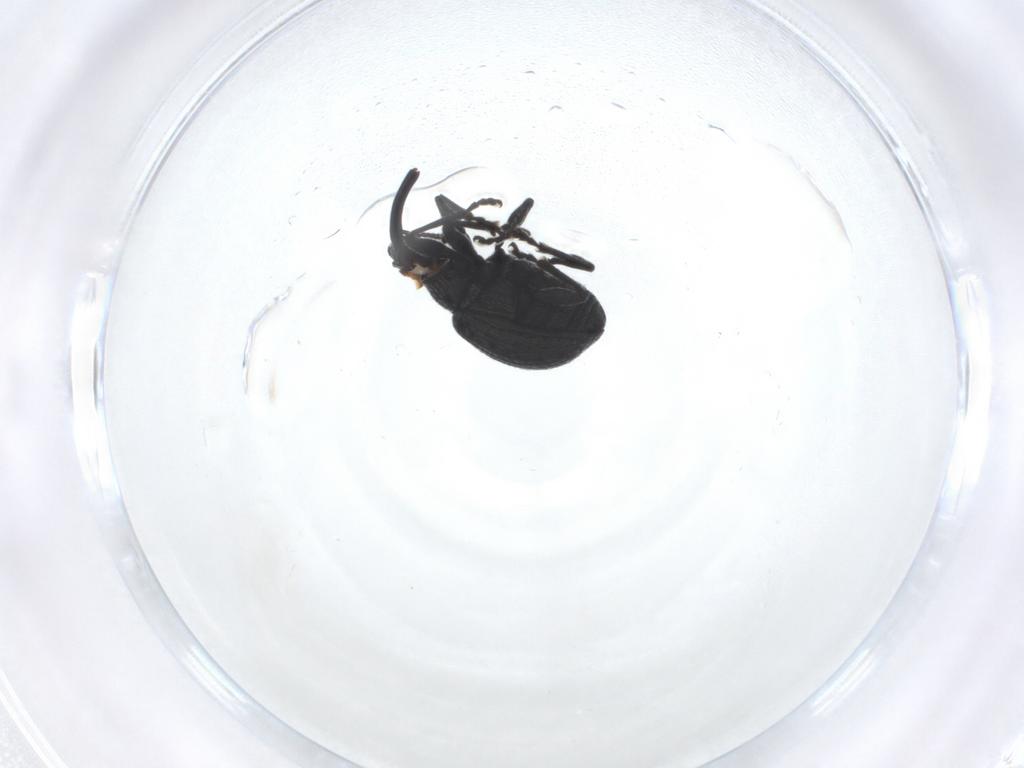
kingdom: Animalia
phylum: Arthropoda
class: Insecta
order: Coleoptera
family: Brentidae
